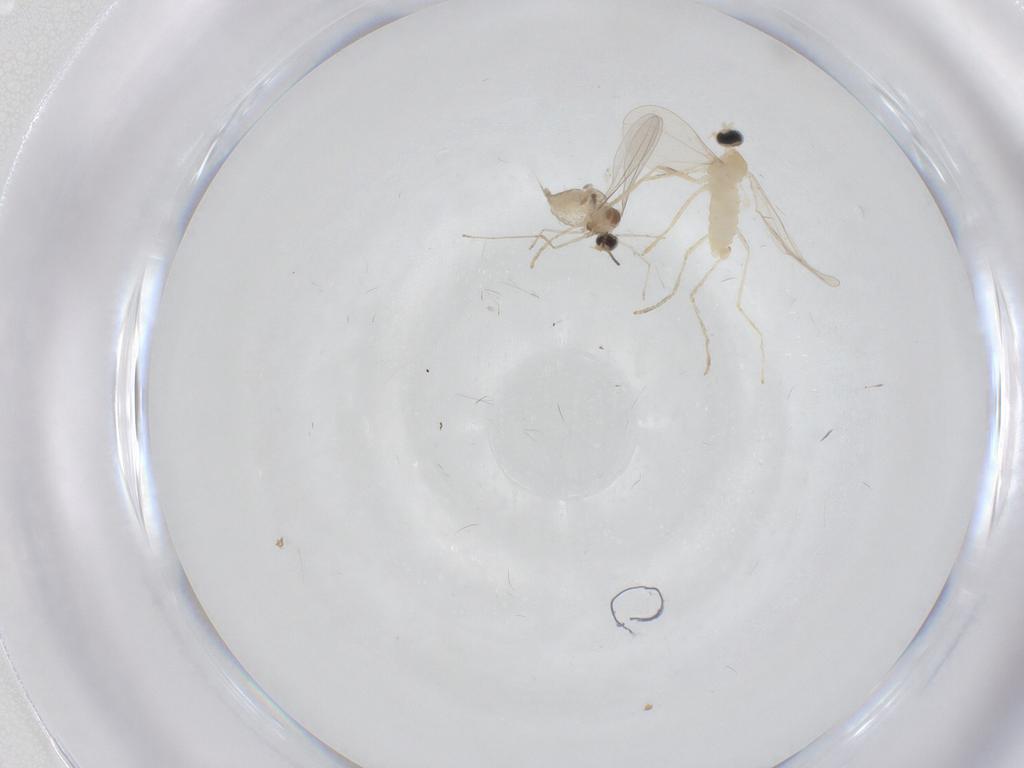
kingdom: Animalia
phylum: Arthropoda
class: Insecta
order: Diptera
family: Cecidomyiidae
